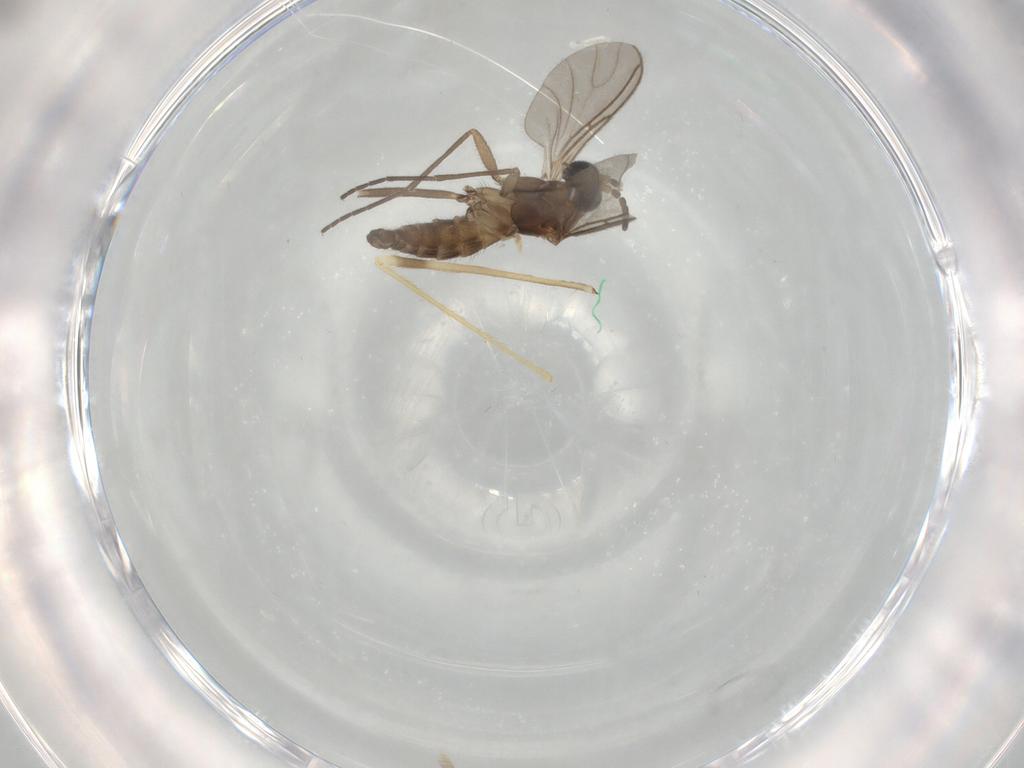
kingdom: Animalia
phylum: Arthropoda
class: Insecta
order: Diptera
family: Sciaridae
